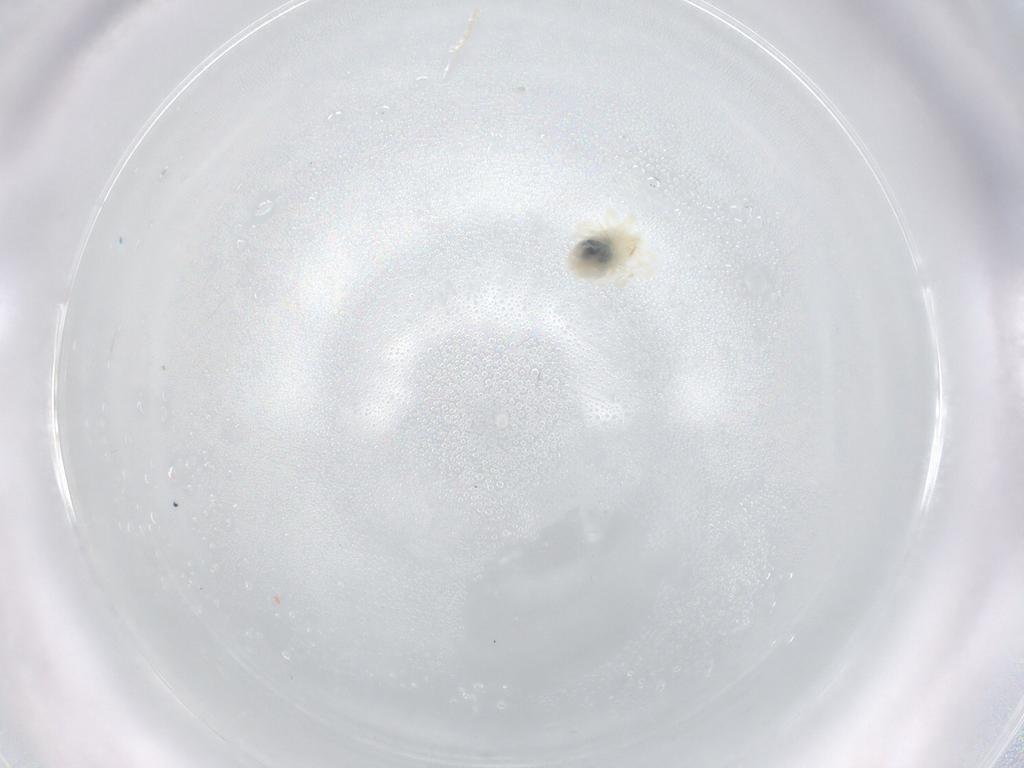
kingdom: Animalia
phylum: Arthropoda
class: Arachnida
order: Trombidiformes
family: Anystidae
